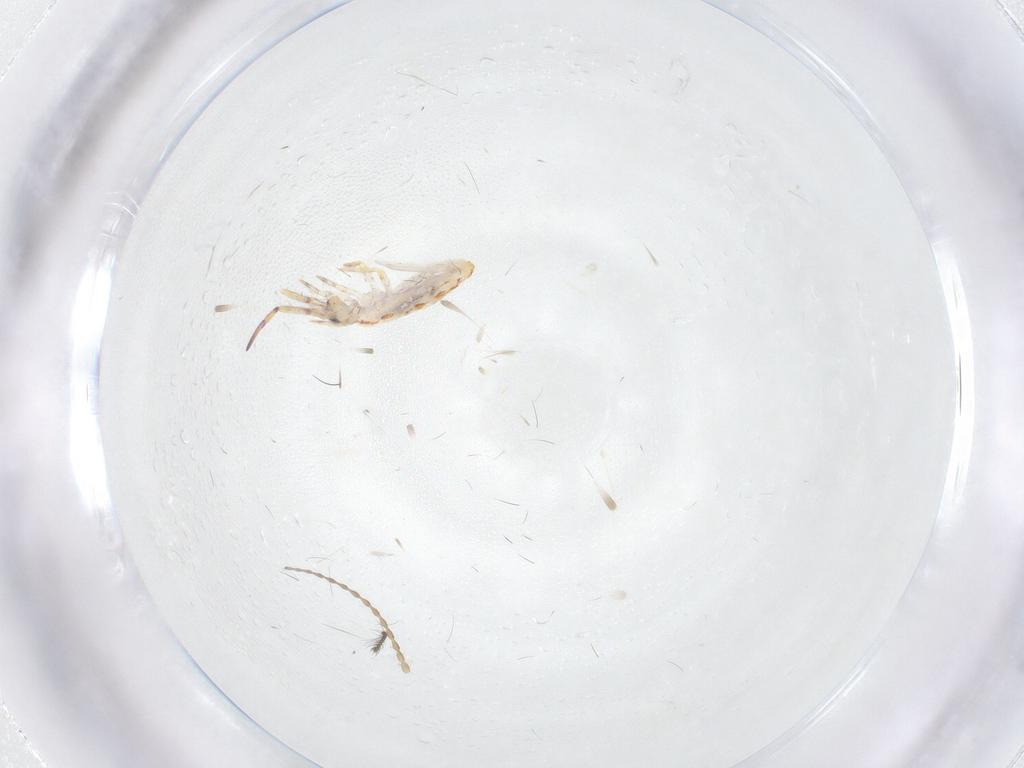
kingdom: Animalia
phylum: Arthropoda
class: Collembola
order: Entomobryomorpha
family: Entomobryidae
